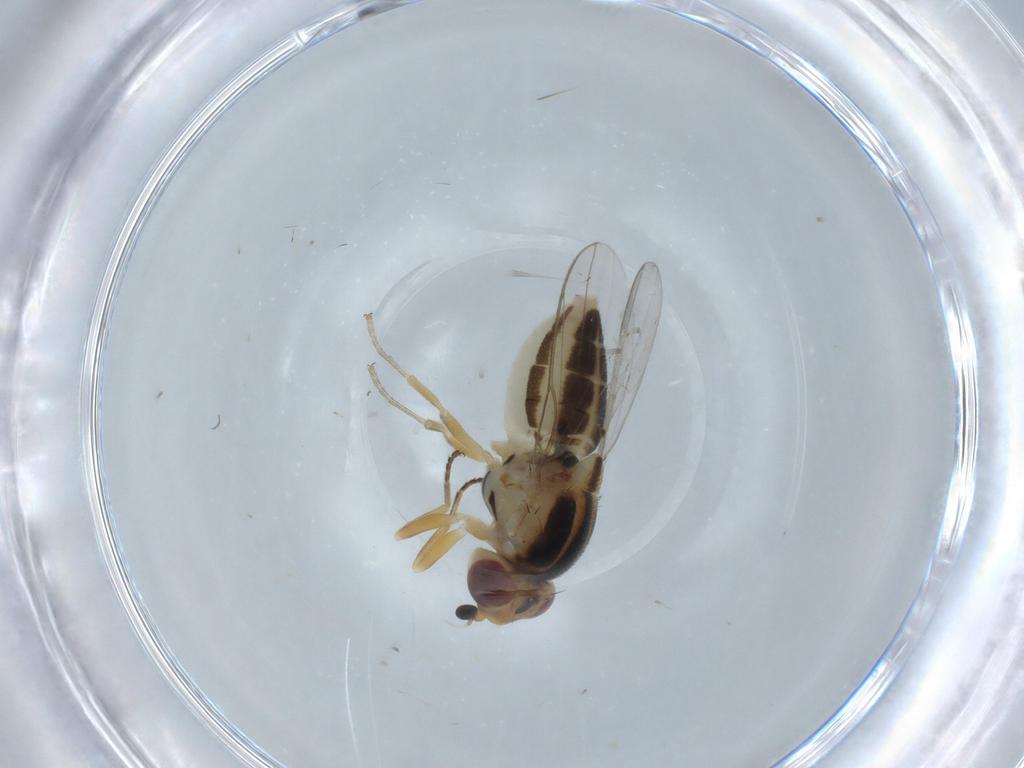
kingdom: Animalia
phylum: Arthropoda
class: Insecta
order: Diptera
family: Chloropidae
